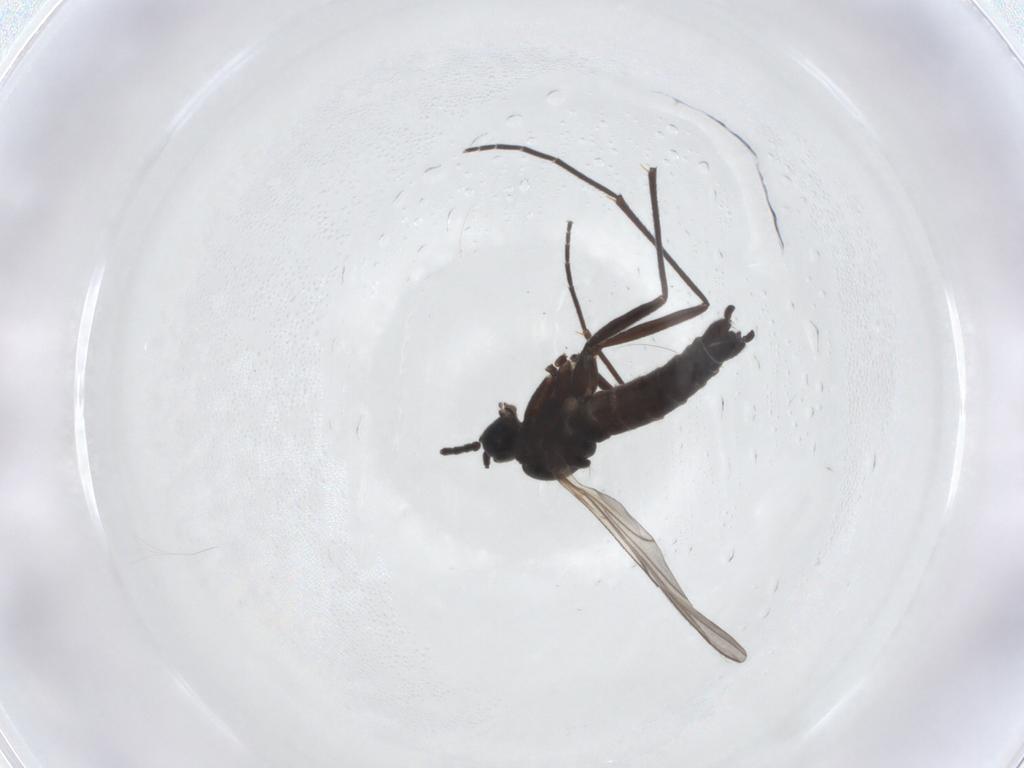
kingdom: Animalia
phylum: Arthropoda
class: Insecta
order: Diptera
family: Sciaridae
